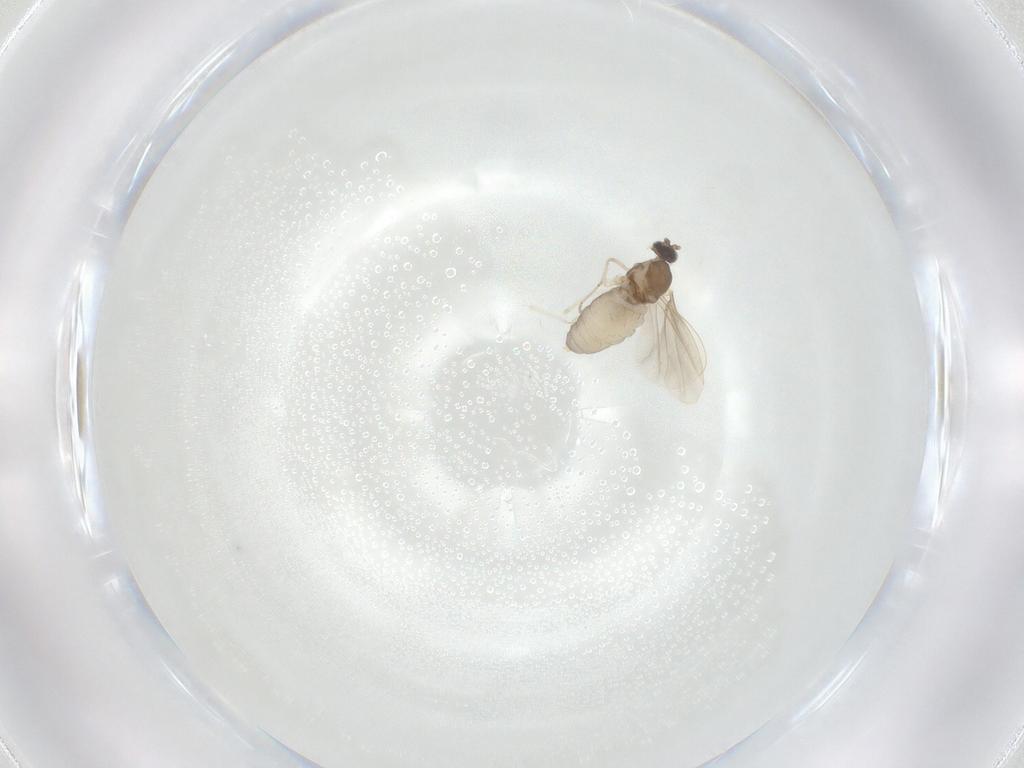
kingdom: Animalia
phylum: Arthropoda
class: Insecta
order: Diptera
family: Cecidomyiidae
